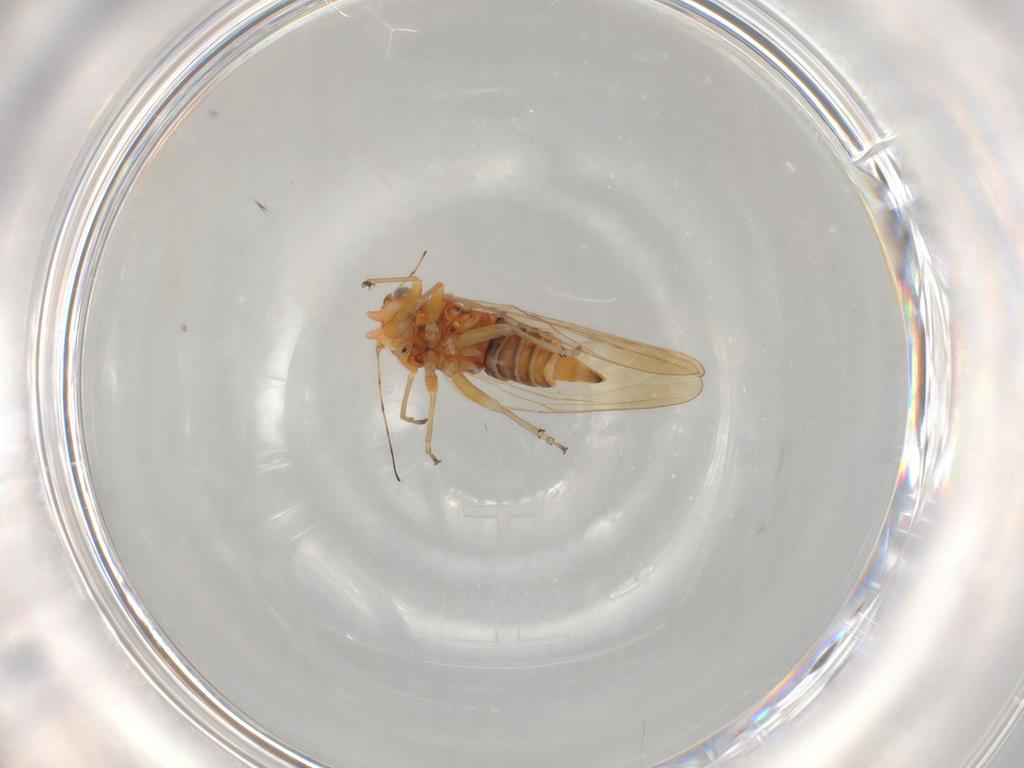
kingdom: Animalia
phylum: Arthropoda
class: Insecta
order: Hemiptera
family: Psyllidae
